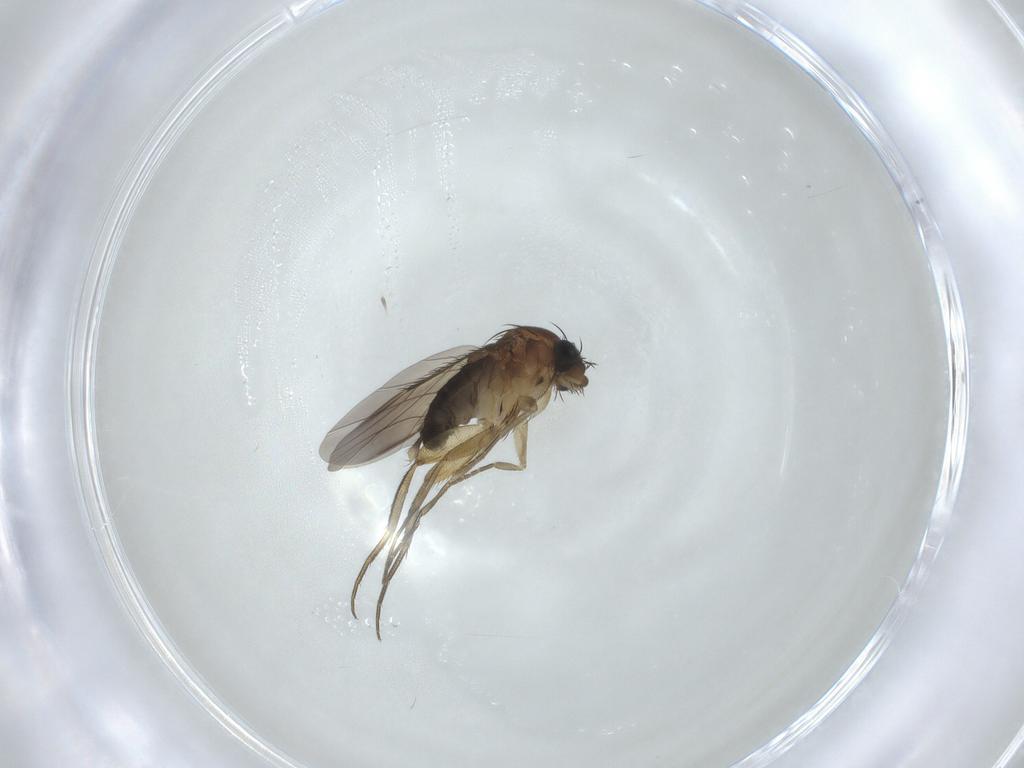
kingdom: Animalia
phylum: Arthropoda
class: Insecta
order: Diptera
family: Phoridae
